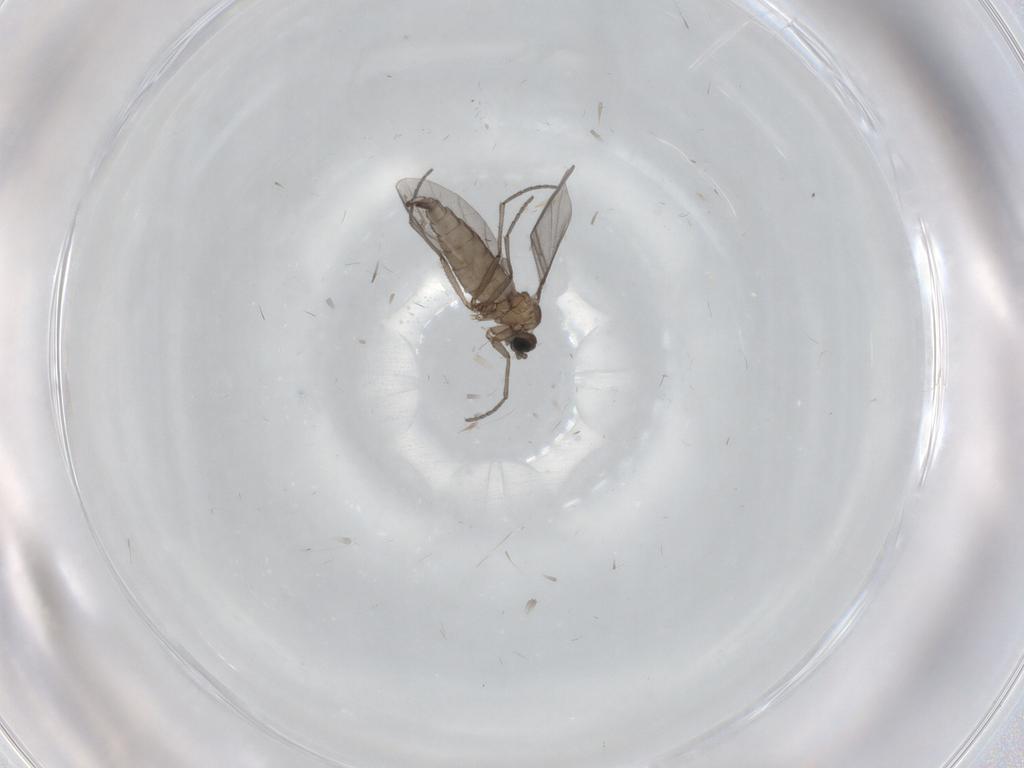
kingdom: Animalia
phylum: Arthropoda
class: Insecta
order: Diptera
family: Sciaridae
